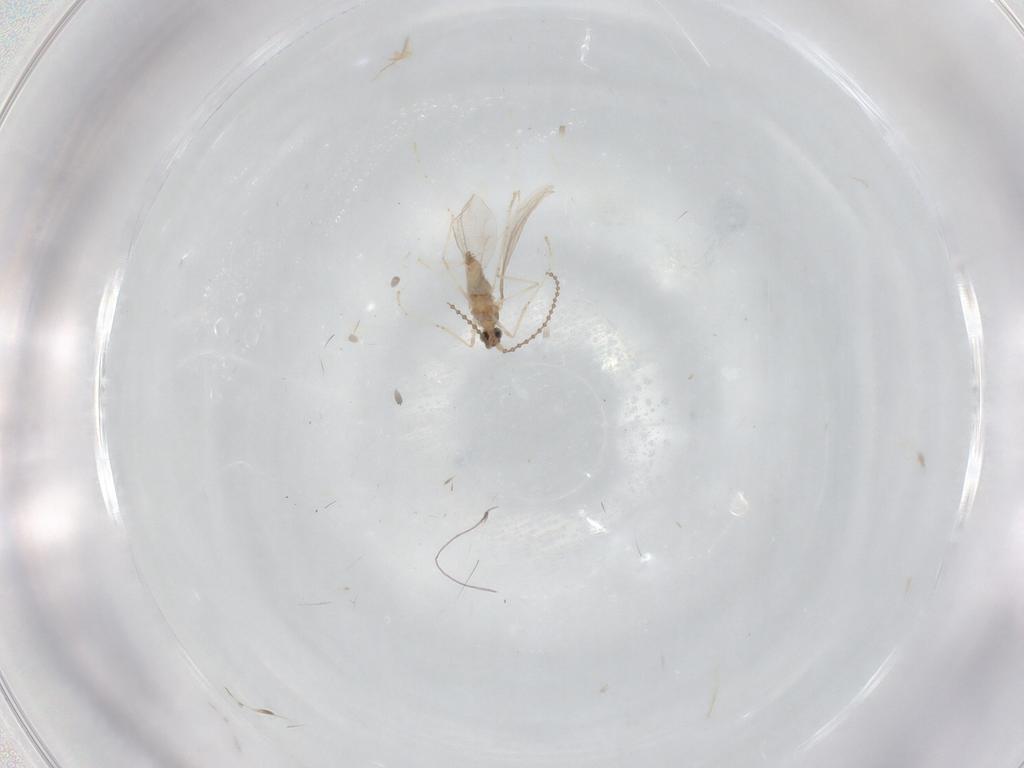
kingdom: Animalia
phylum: Arthropoda
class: Insecta
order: Diptera
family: Cecidomyiidae
